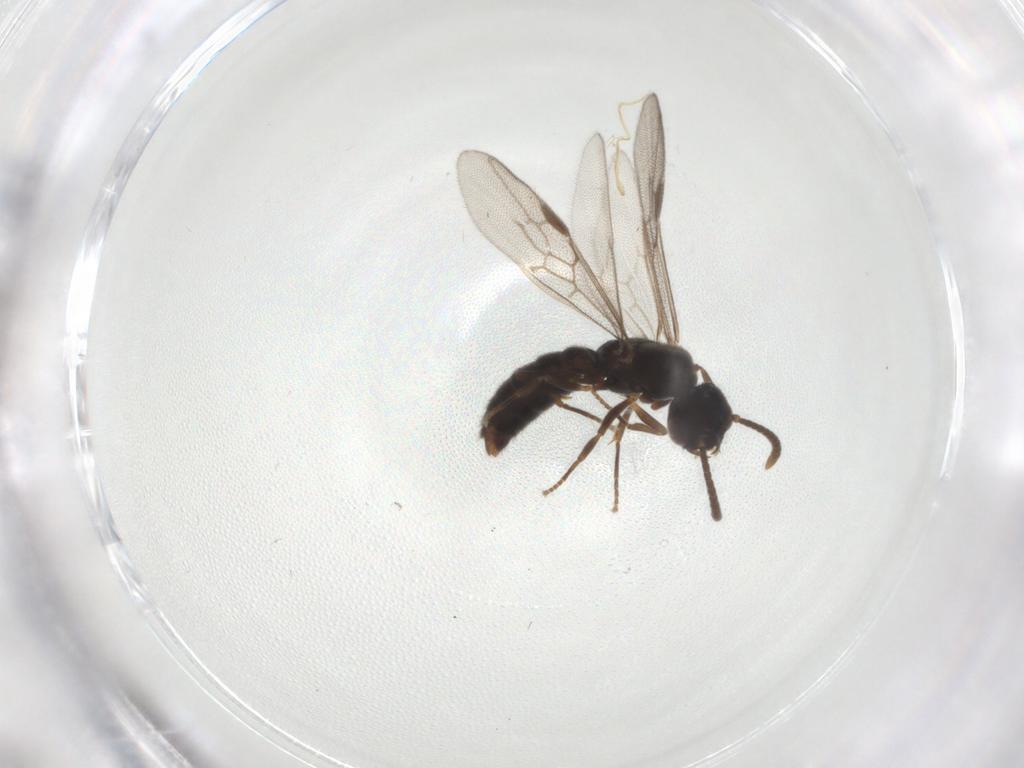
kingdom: Animalia
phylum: Arthropoda
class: Insecta
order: Hymenoptera
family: Formicidae
